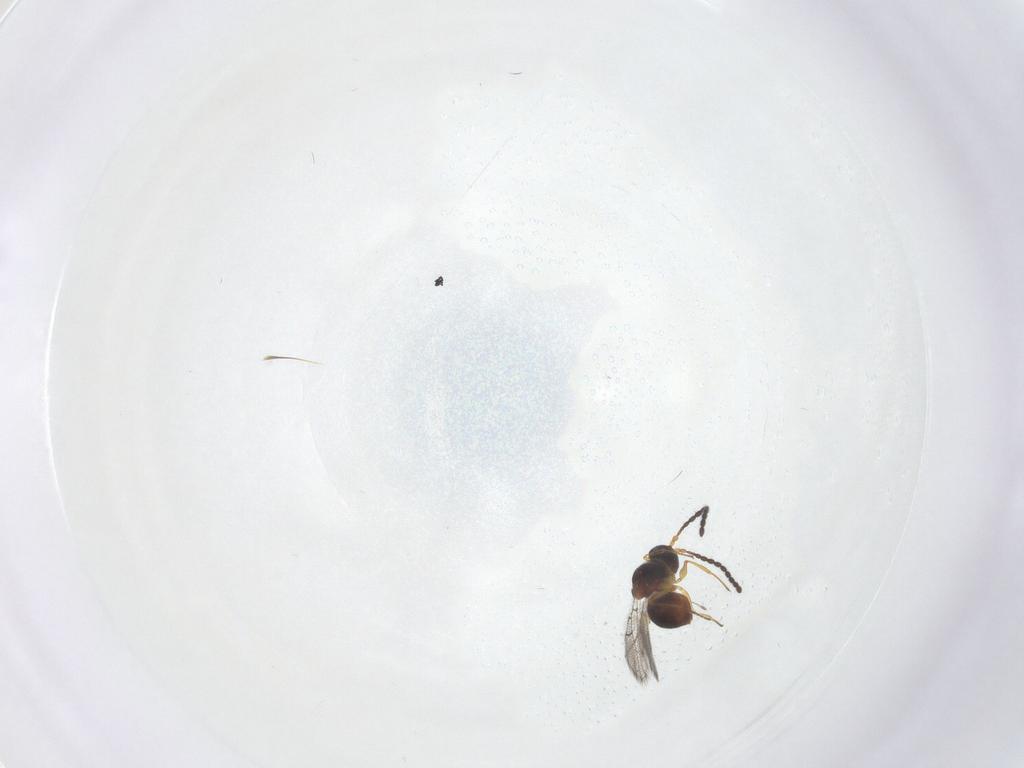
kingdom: Animalia
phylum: Arthropoda
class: Insecta
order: Hymenoptera
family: Figitidae
